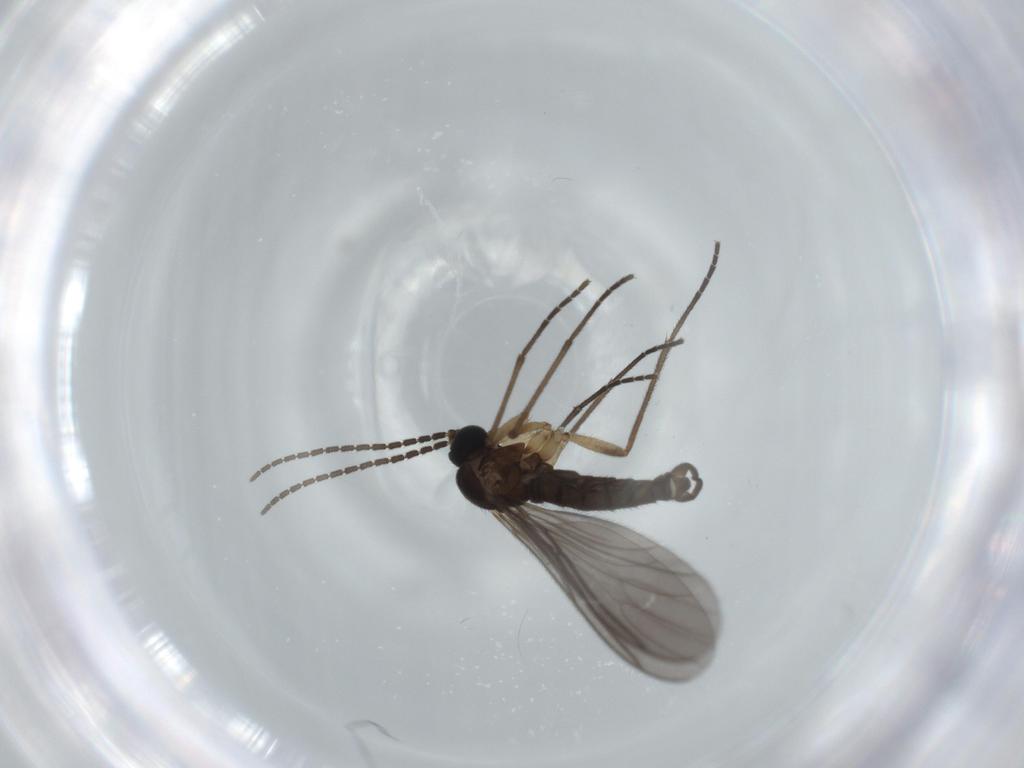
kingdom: Animalia
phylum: Arthropoda
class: Insecta
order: Diptera
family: Sciaridae
